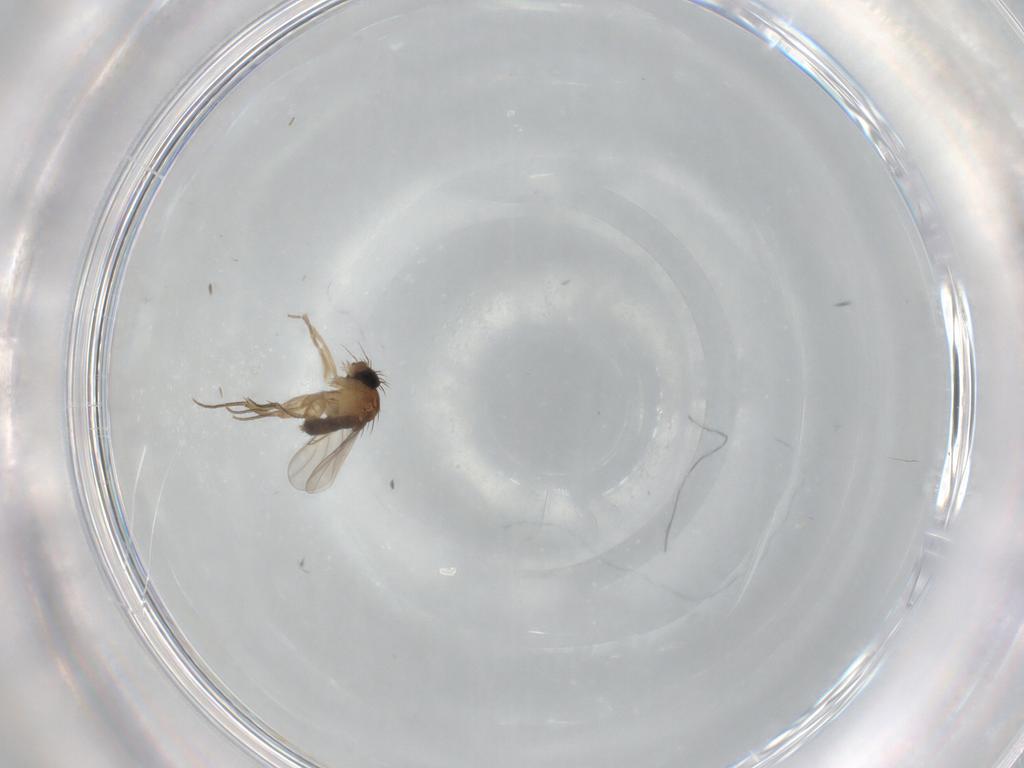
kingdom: Animalia
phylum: Arthropoda
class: Insecta
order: Diptera
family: Phoridae
